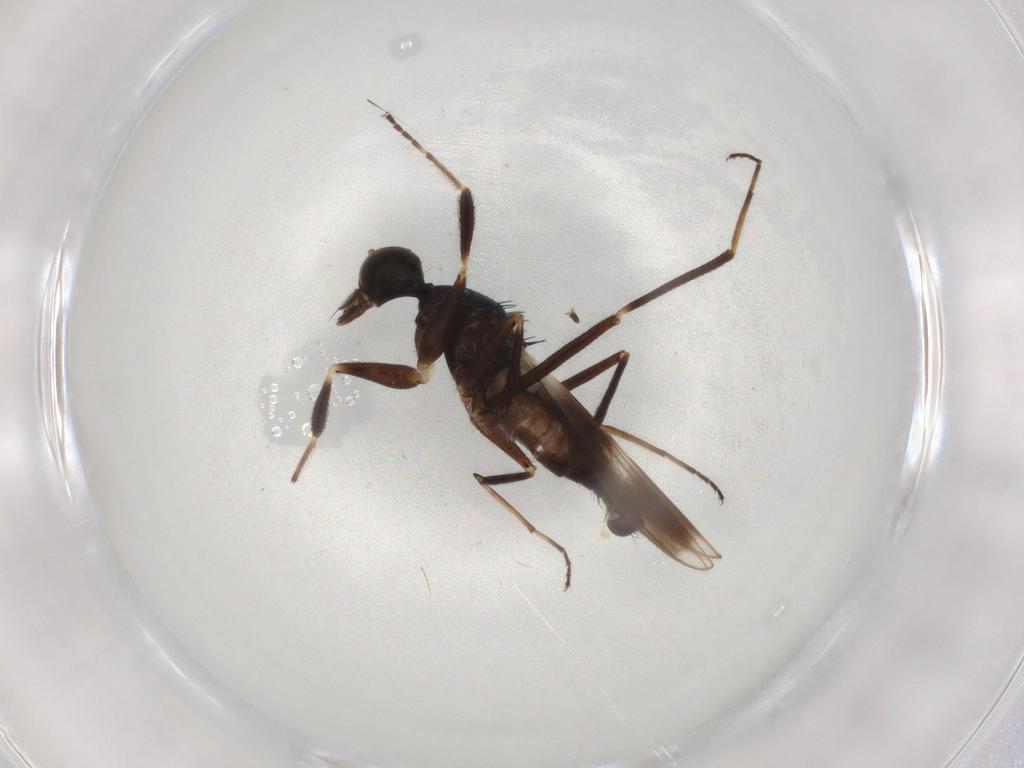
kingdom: Animalia
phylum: Arthropoda
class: Insecta
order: Diptera
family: Hybotidae
